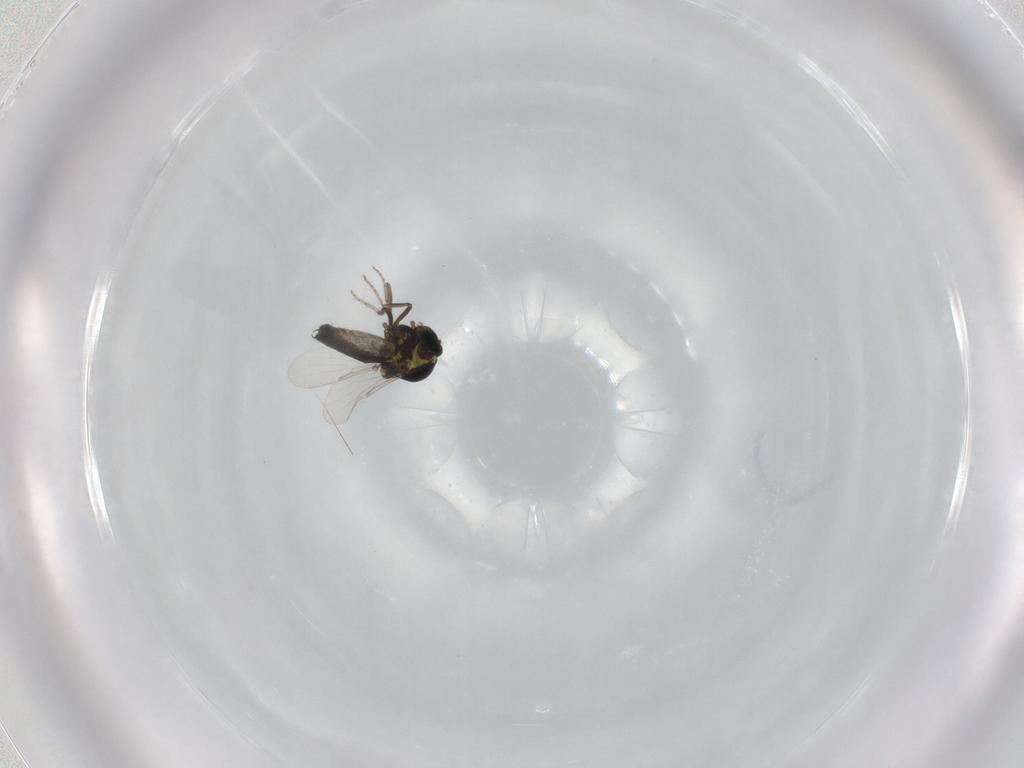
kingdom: Animalia
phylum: Arthropoda
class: Insecta
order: Diptera
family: Ceratopogonidae
